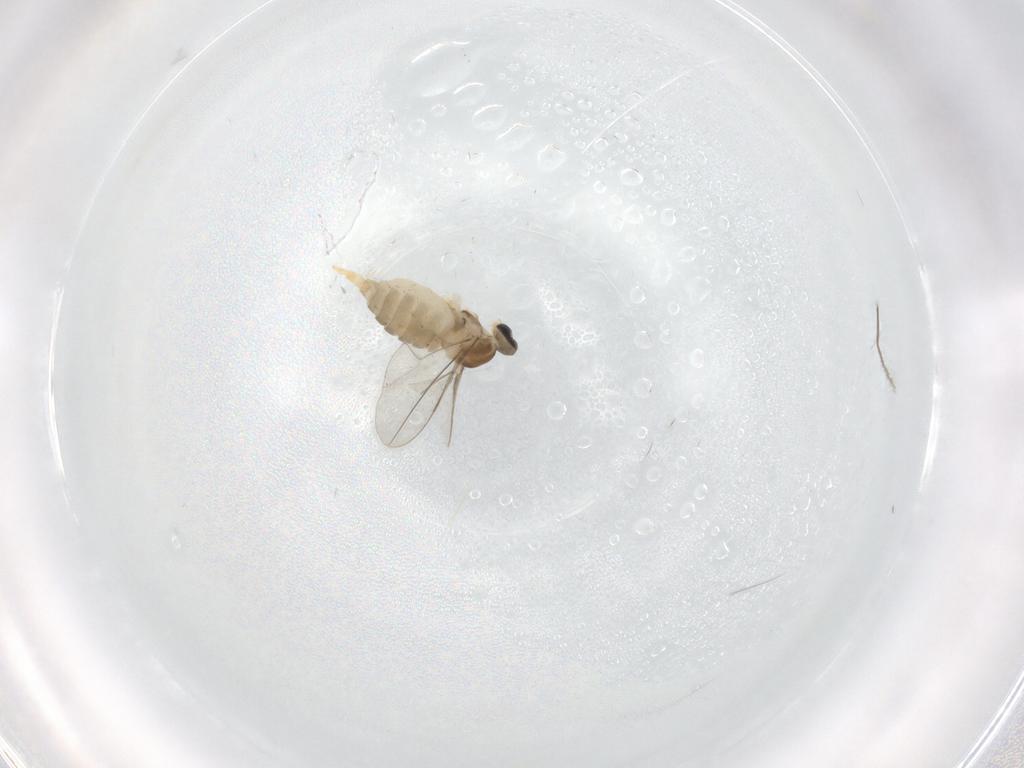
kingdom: Animalia
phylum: Arthropoda
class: Insecta
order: Diptera
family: Cecidomyiidae
